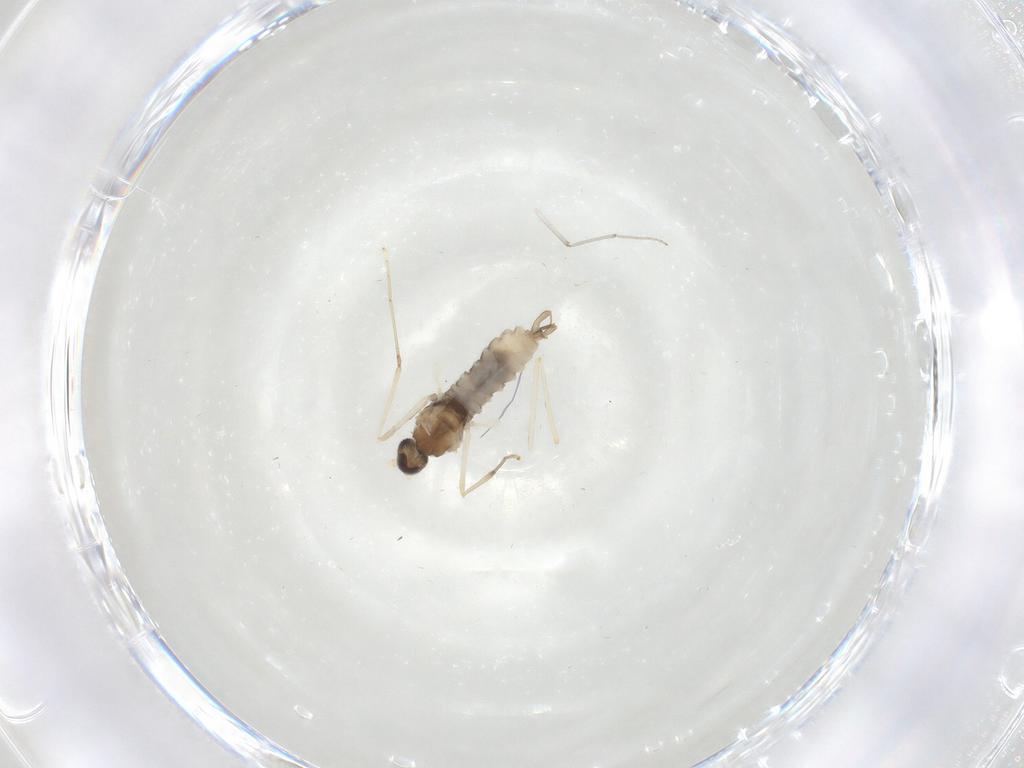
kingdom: Animalia
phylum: Arthropoda
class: Insecta
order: Diptera
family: Cecidomyiidae
